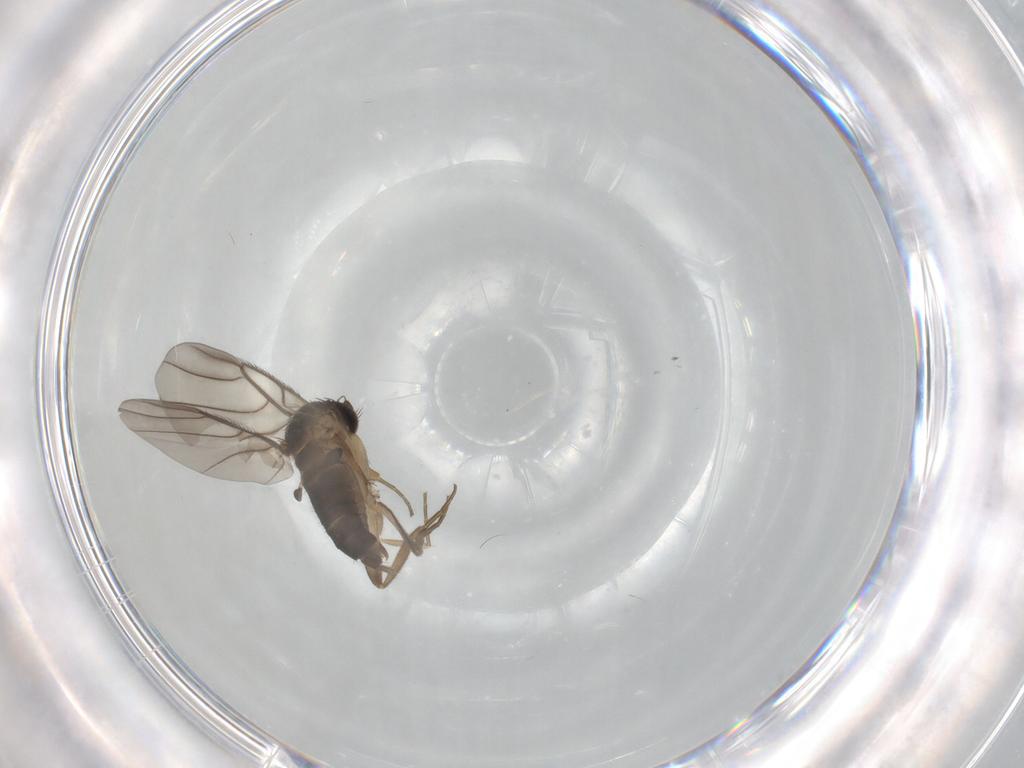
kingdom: Animalia
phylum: Arthropoda
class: Insecta
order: Diptera
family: Phoridae
